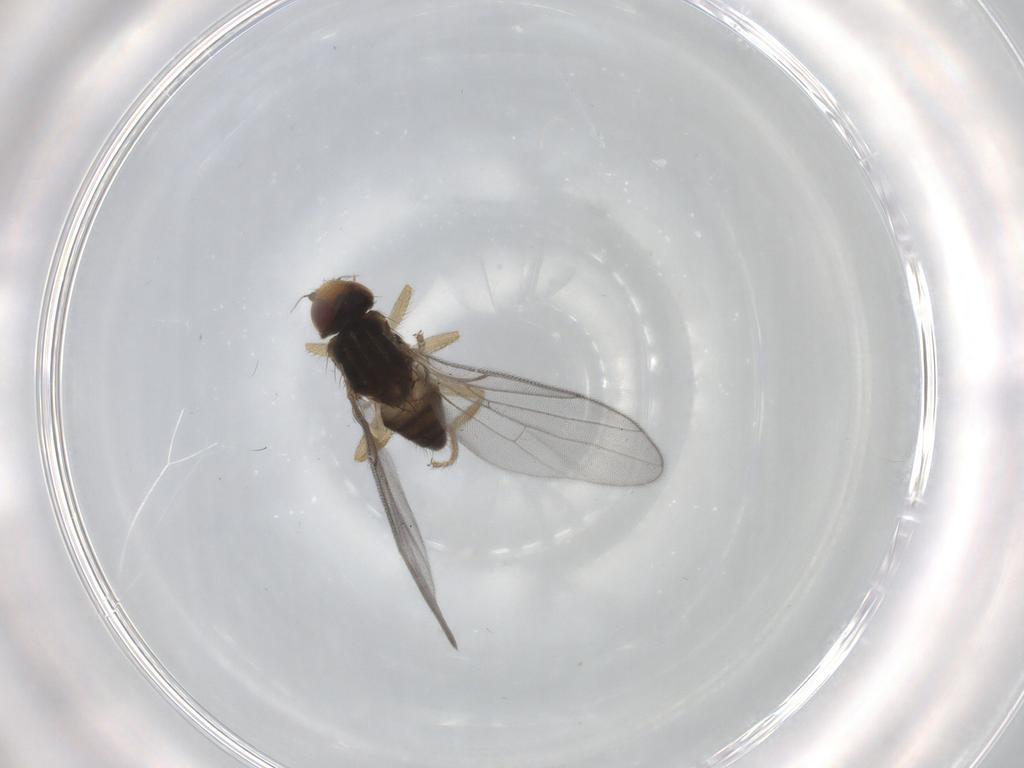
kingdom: Animalia
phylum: Arthropoda
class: Insecta
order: Diptera
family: Chloropidae
